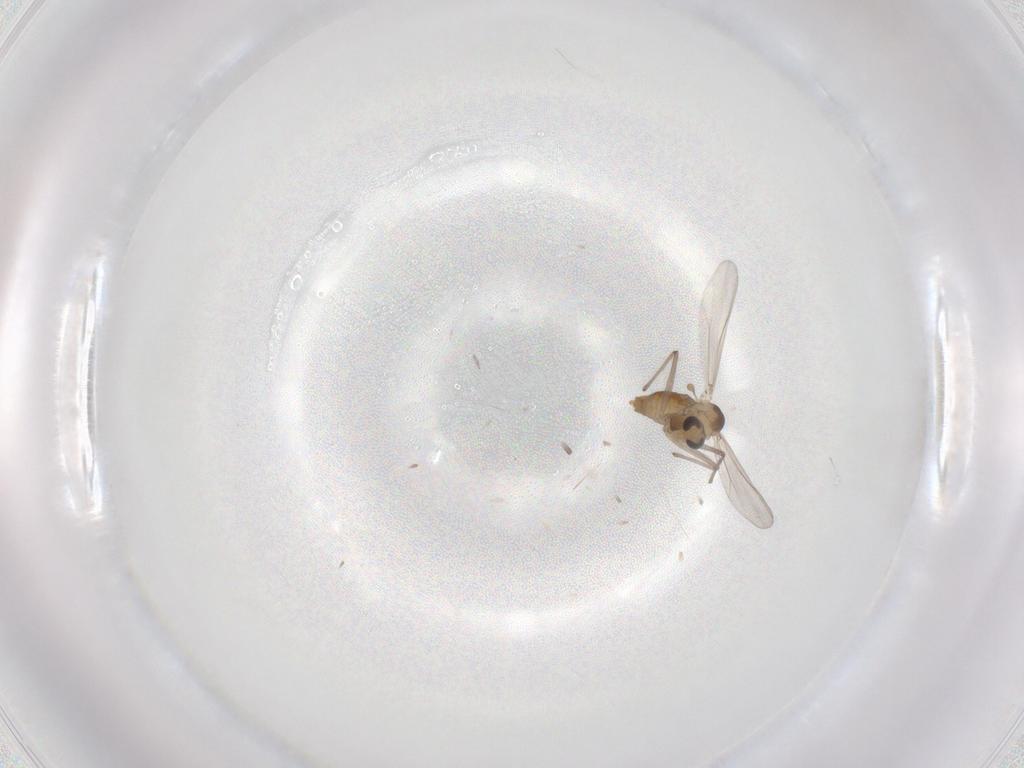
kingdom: Animalia
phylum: Arthropoda
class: Insecta
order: Diptera
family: Chironomidae
